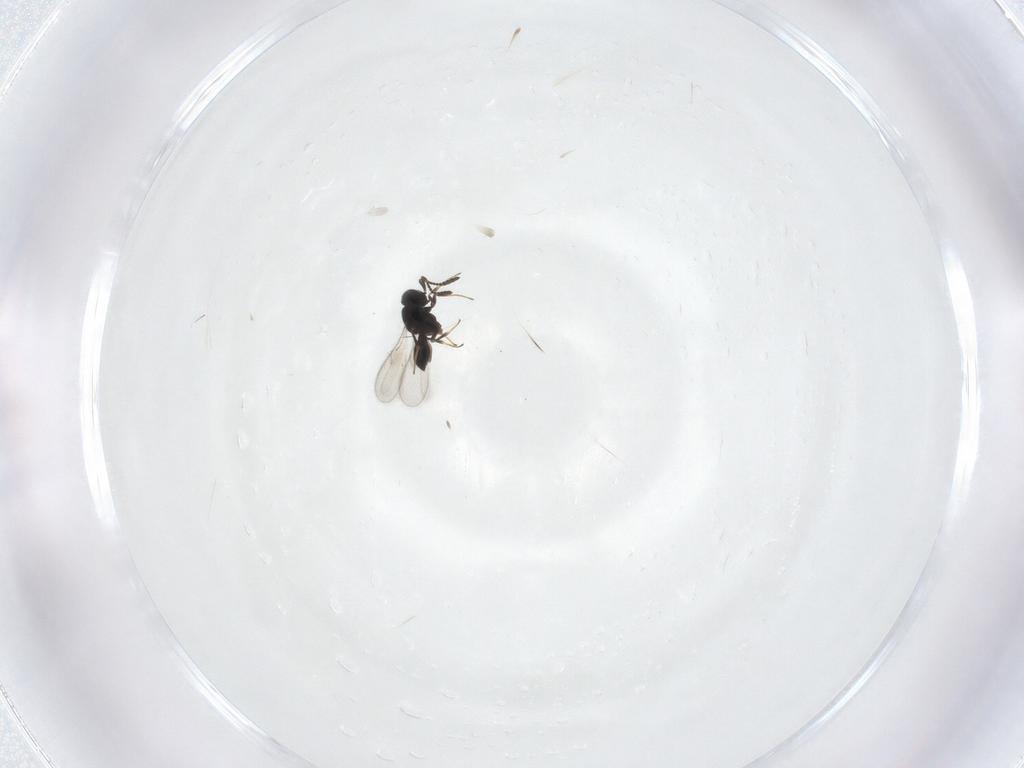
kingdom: Animalia
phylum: Arthropoda
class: Insecta
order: Hymenoptera
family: Scelionidae
